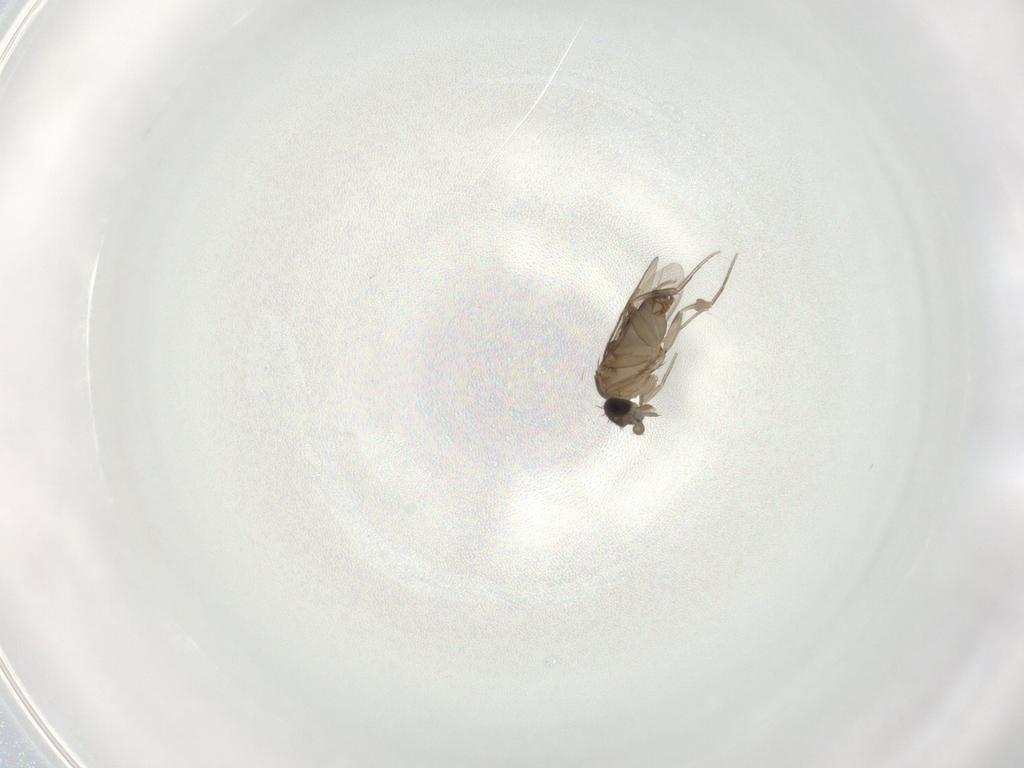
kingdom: Animalia
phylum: Arthropoda
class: Insecta
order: Diptera
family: Phoridae
